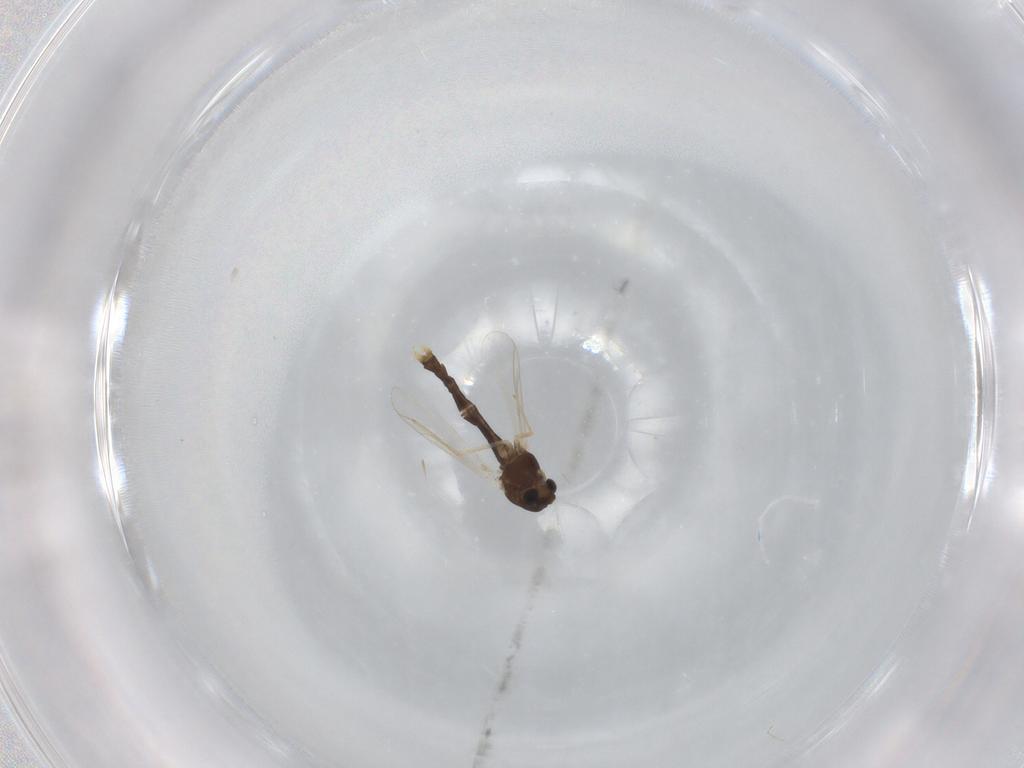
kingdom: Animalia
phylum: Arthropoda
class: Insecta
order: Diptera
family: Chironomidae
